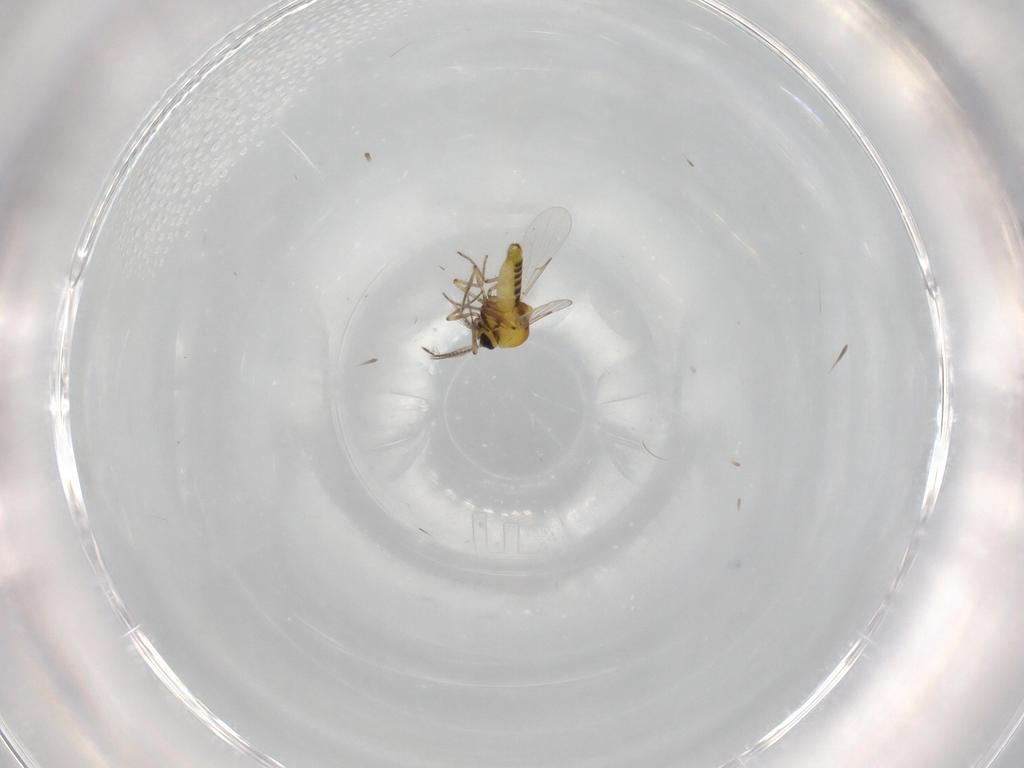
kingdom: Animalia
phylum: Arthropoda
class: Insecta
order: Diptera
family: Ceratopogonidae
